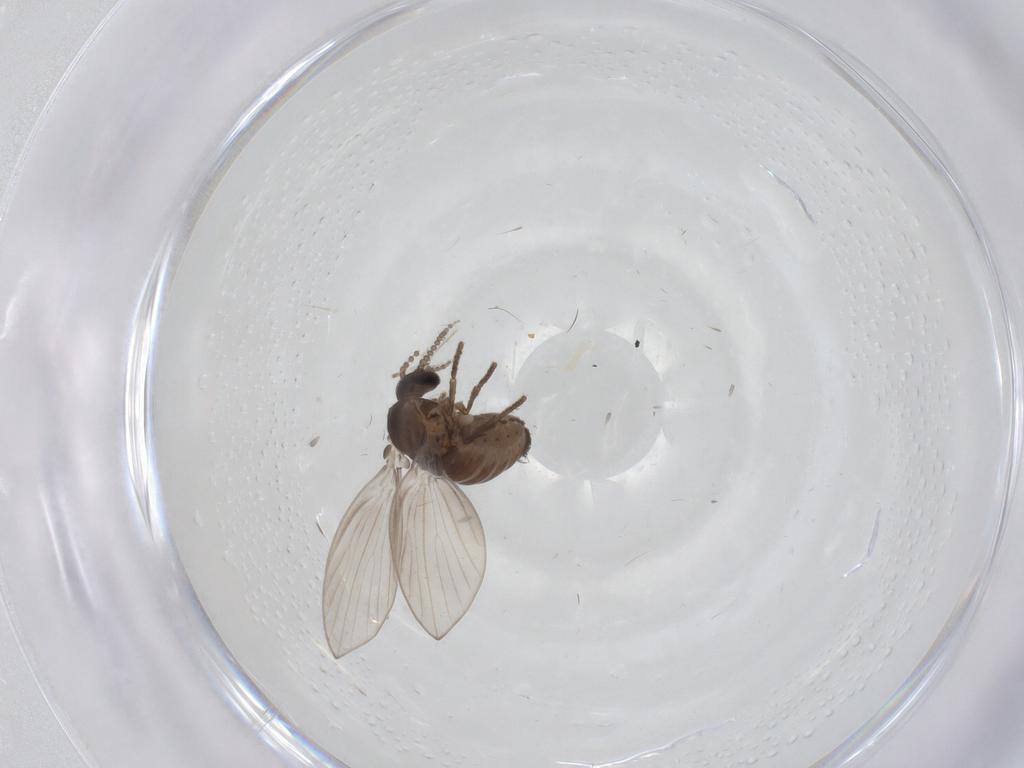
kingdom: Animalia
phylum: Arthropoda
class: Insecta
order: Diptera
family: Psychodidae
